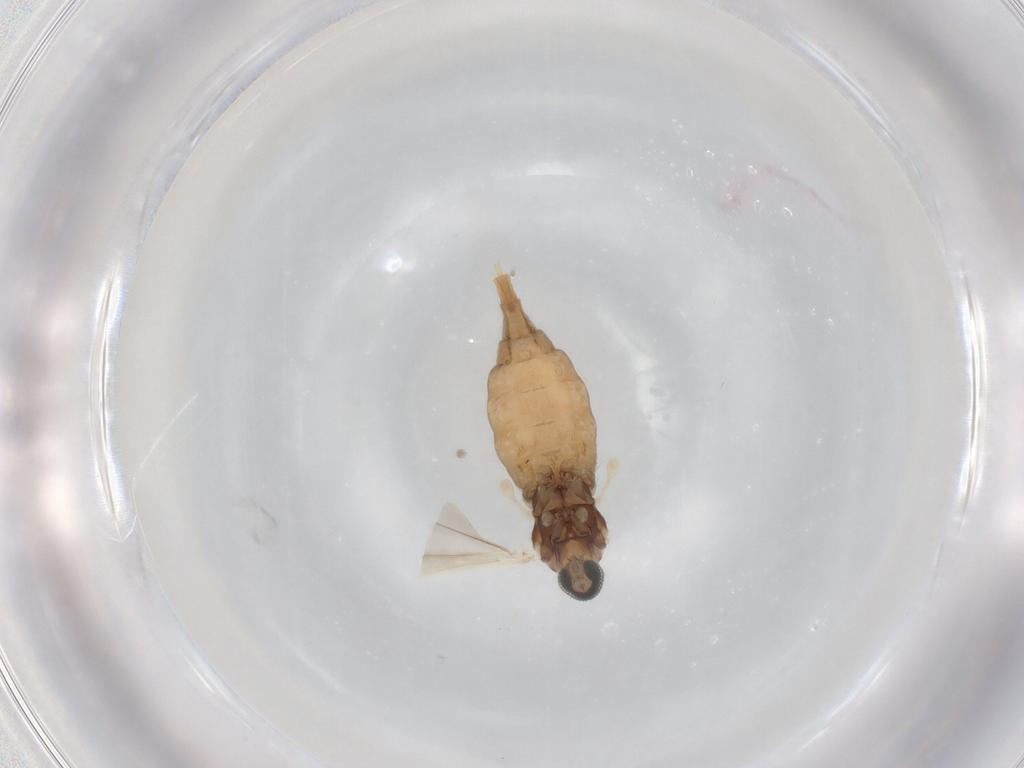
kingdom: Animalia
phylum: Arthropoda
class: Insecta
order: Diptera
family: Cecidomyiidae
